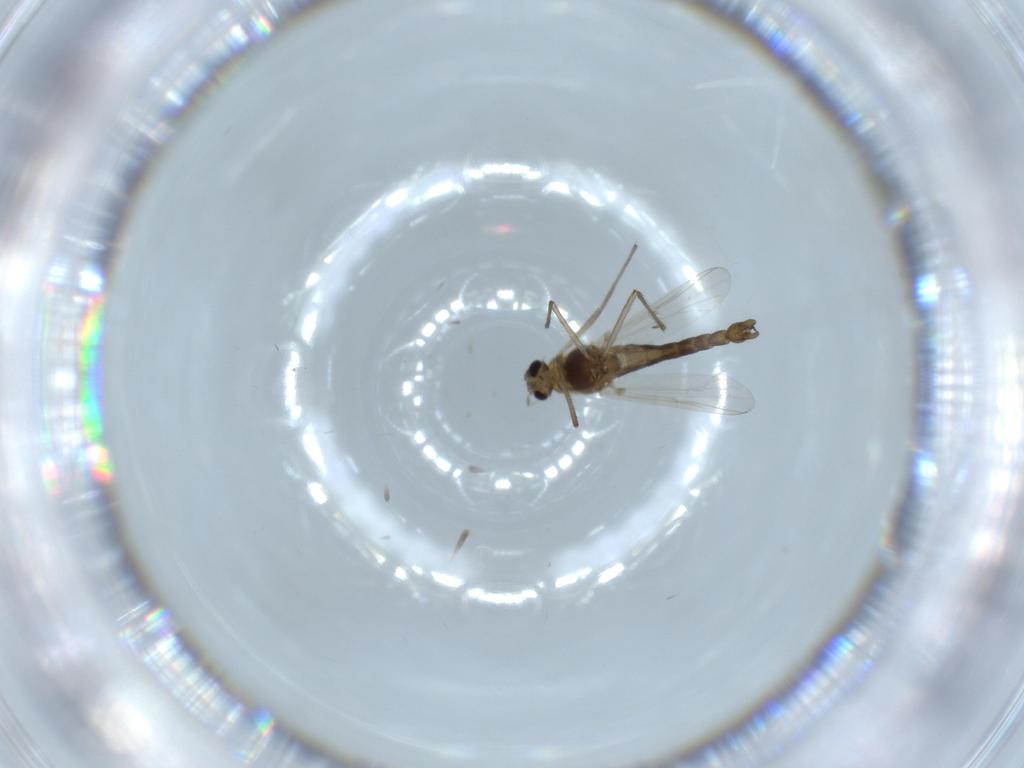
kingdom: Animalia
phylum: Arthropoda
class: Insecta
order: Diptera
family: Chironomidae
